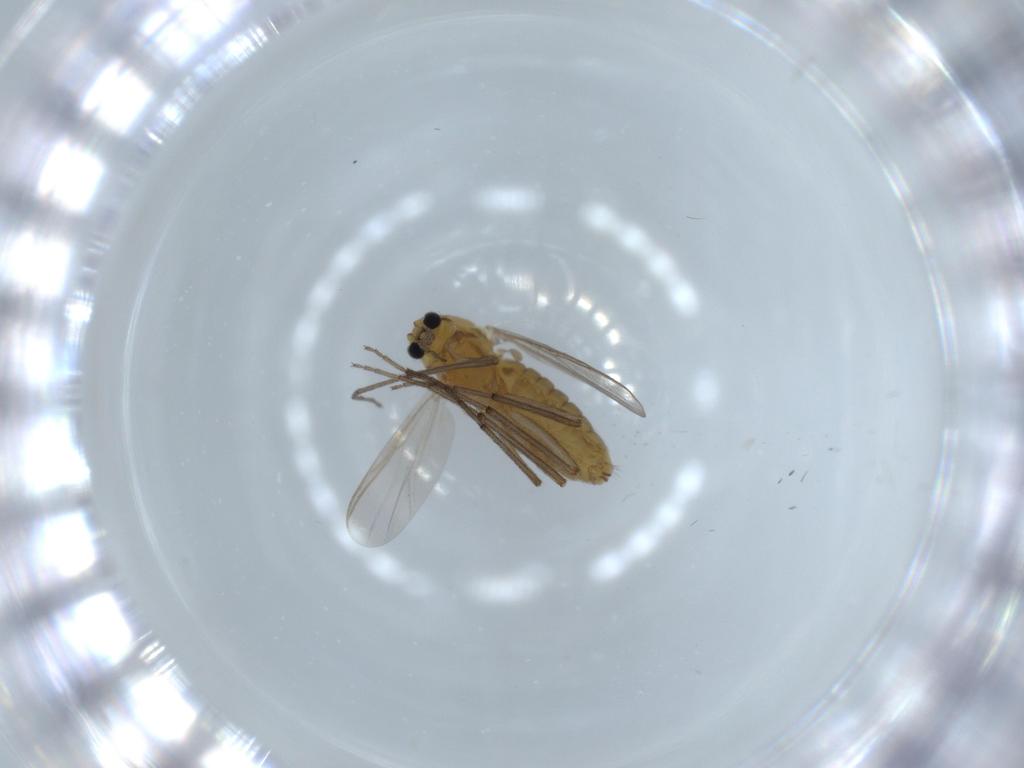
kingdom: Animalia
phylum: Arthropoda
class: Insecta
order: Diptera
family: Chironomidae
